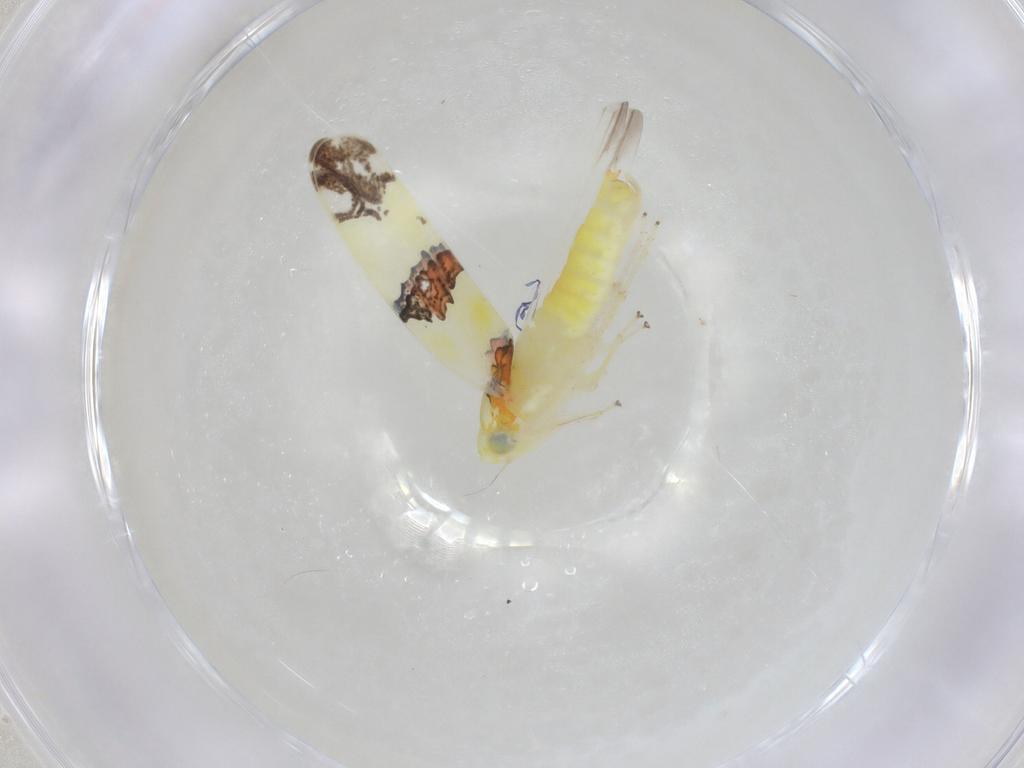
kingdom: Animalia
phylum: Arthropoda
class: Insecta
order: Hemiptera
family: Cicadellidae
